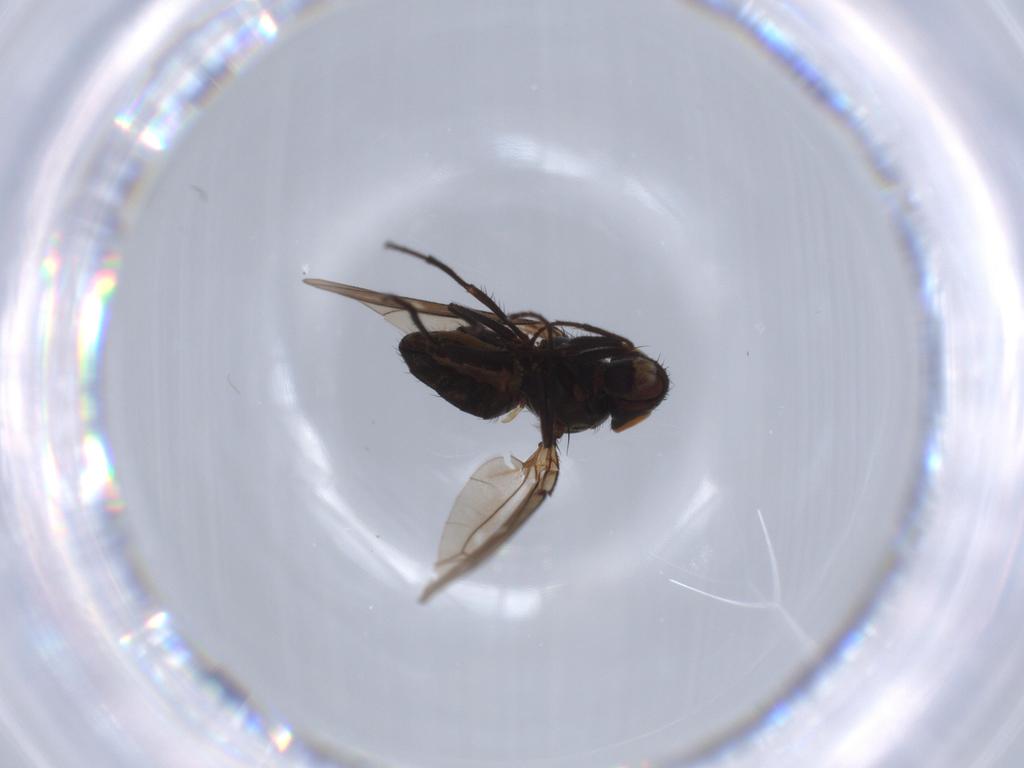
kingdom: Animalia
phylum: Arthropoda
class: Insecta
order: Diptera
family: Ephydridae
